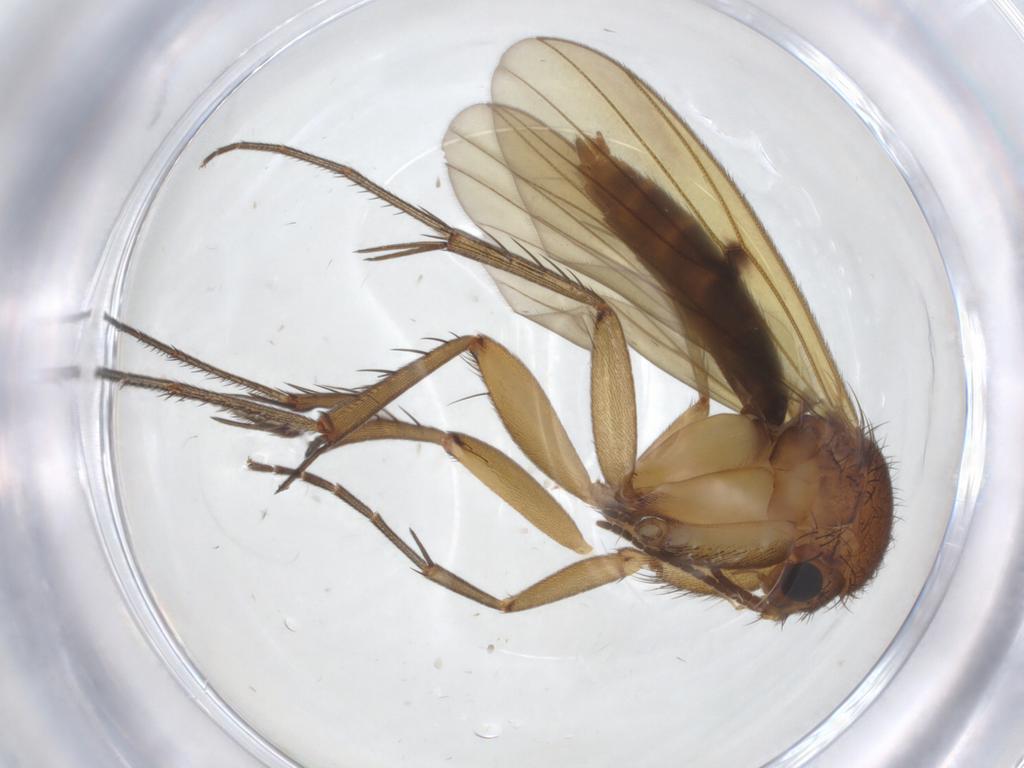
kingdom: Animalia
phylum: Arthropoda
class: Insecta
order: Diptera
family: Mycetophilidae
